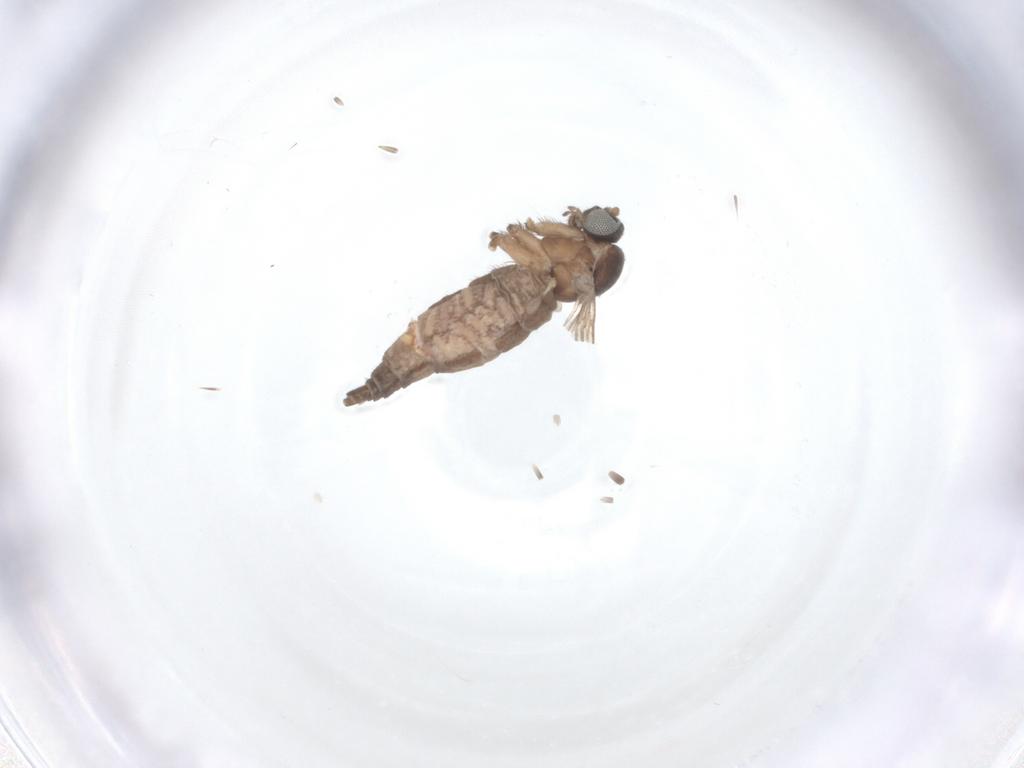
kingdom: Animalia
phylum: Arthropoda
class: Insecta
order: Diptera
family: Sciaridae
